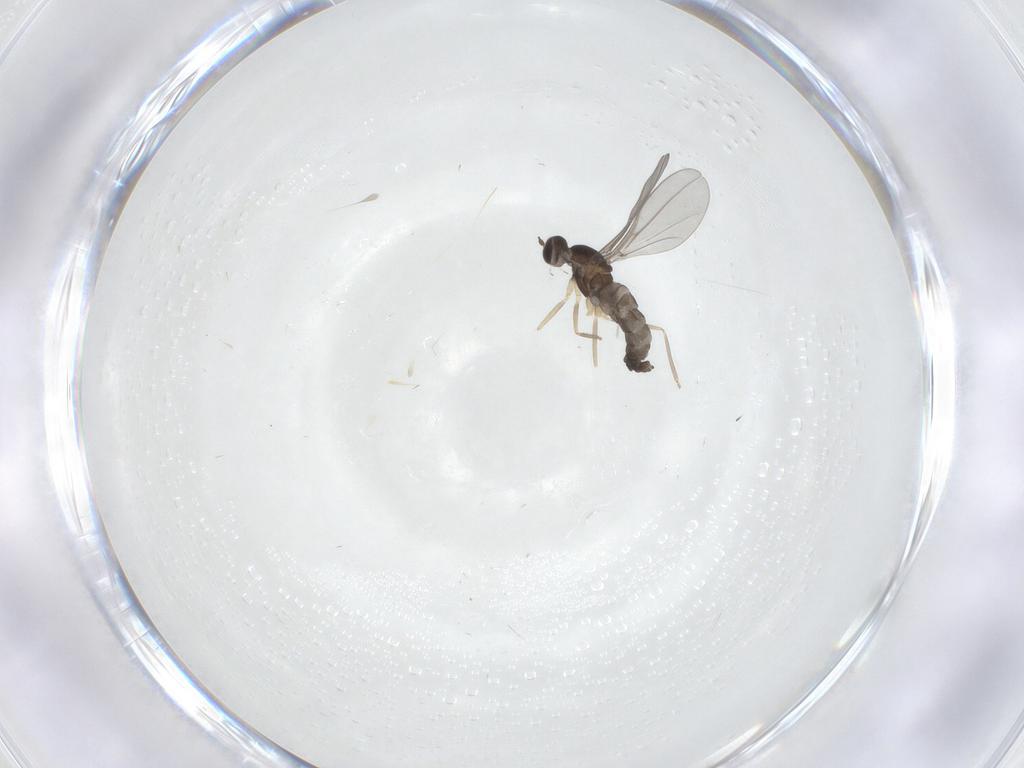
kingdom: Animalia
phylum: Arthropoda
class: Insecta
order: Diptera
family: Cecidomyiidae
